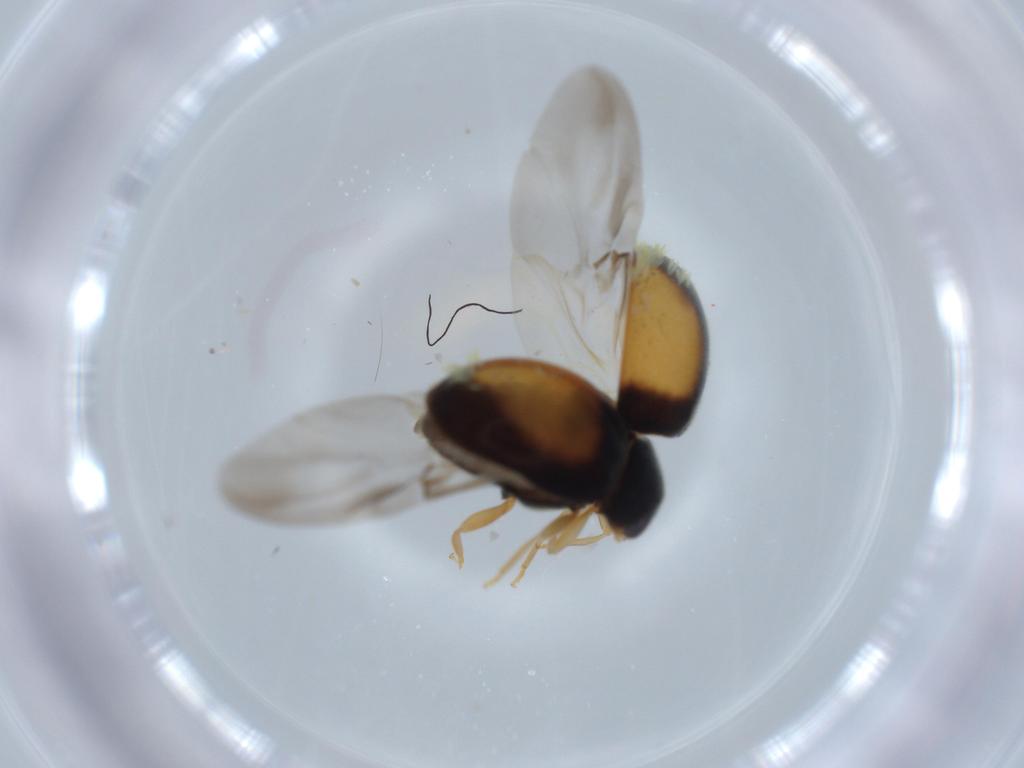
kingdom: Animalia
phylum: Arthropoda
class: Insecta
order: Coleoptera
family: Coccinellidae
